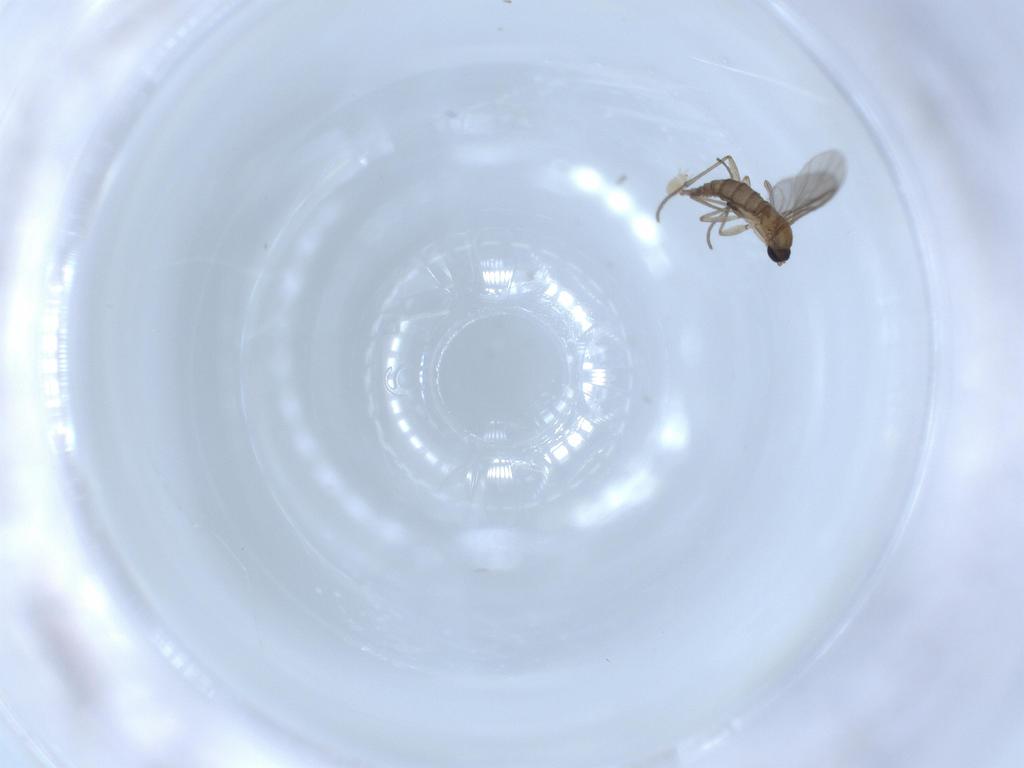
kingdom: Animalia
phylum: Arthropoda
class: Insecta
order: Diptera
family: Sciaridae
